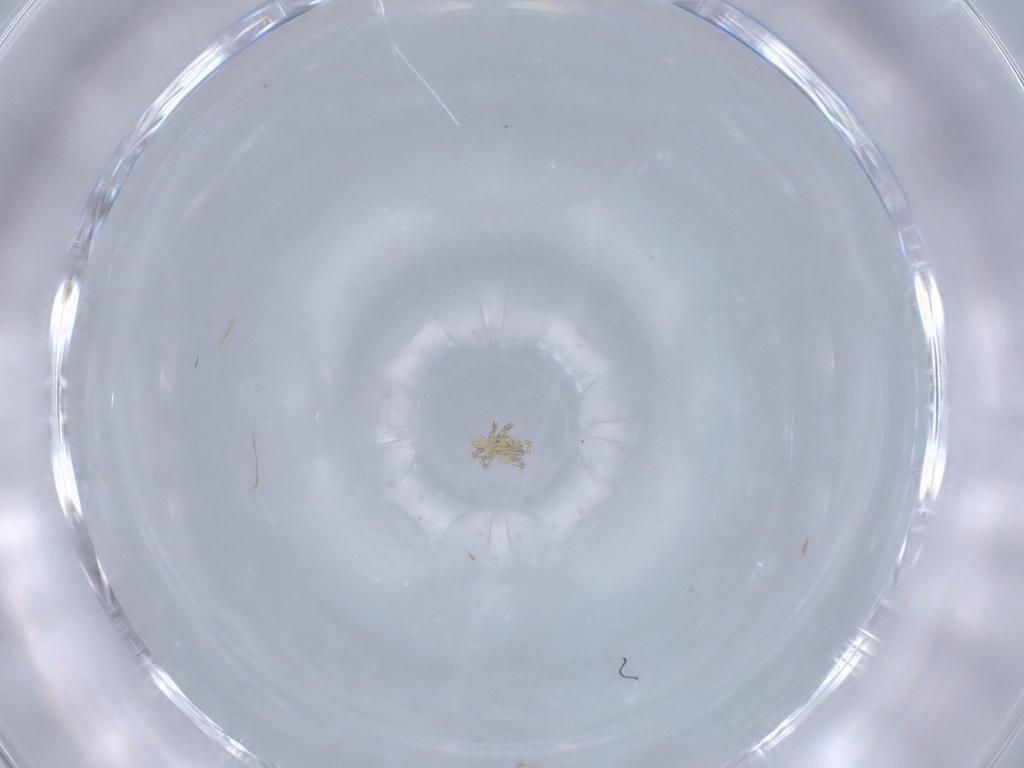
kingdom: Animalia
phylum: Arthropoda
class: Arachnida
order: Trombidiformes
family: Erythraeidae
